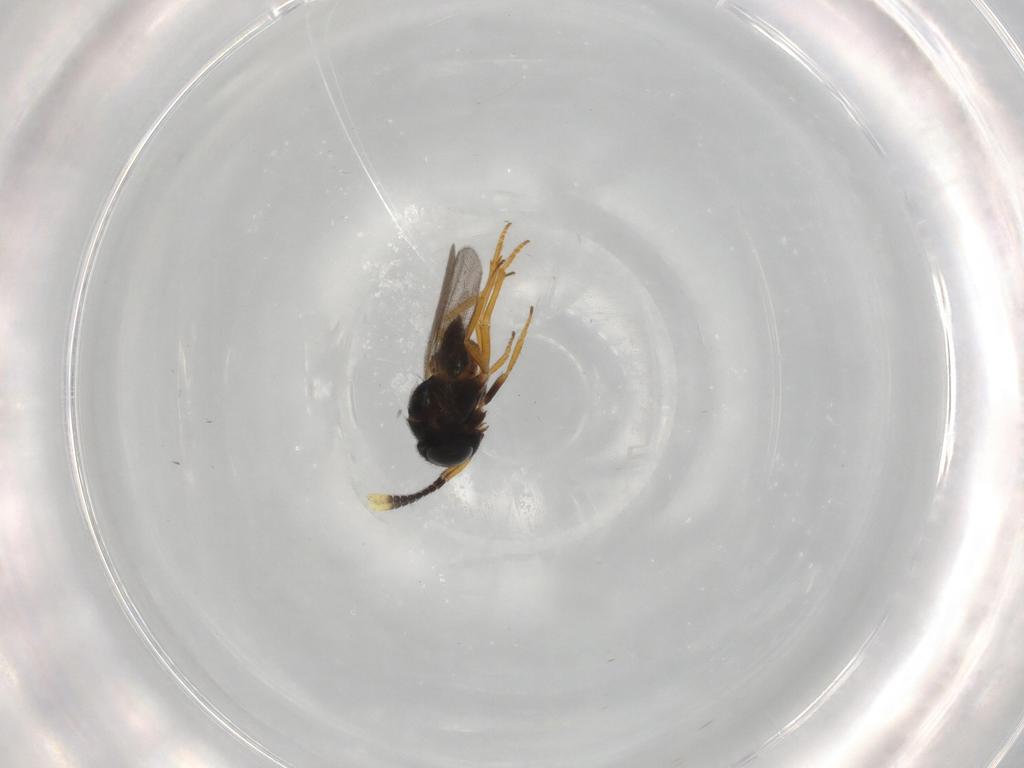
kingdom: Animalia
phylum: Arthropoda
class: Insecta
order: Hymenoptera
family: Encyrtidae
